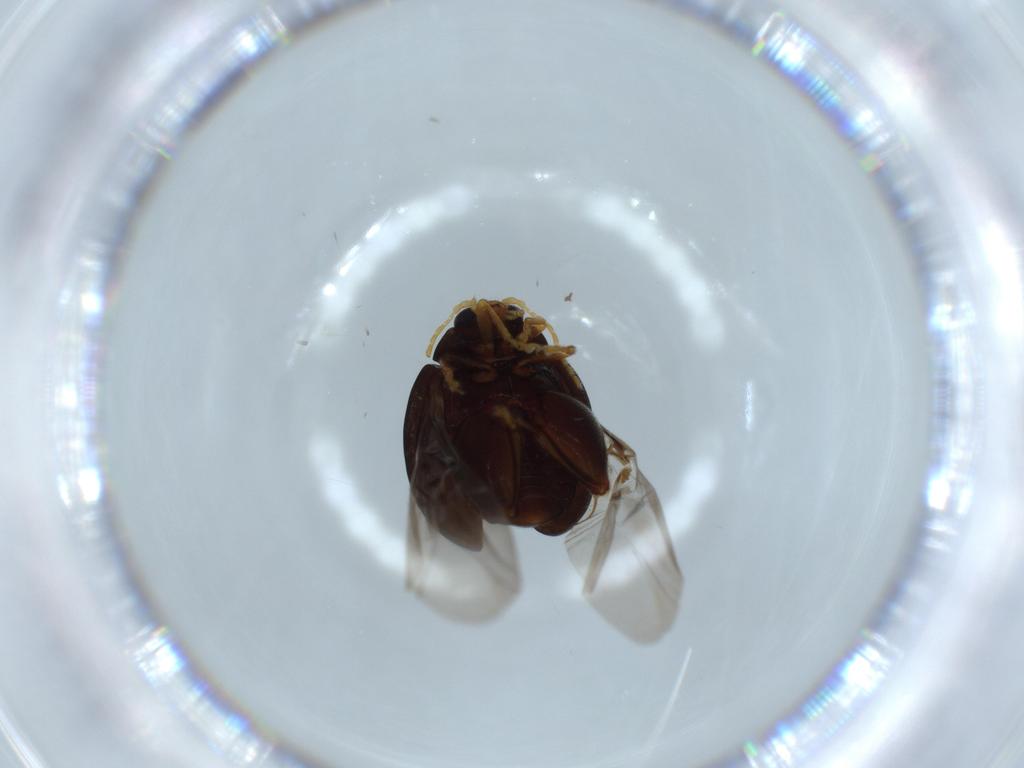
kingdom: Animalia
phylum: Arthropoda
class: Insecta
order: Coleoptera
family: Chrysomelidae
